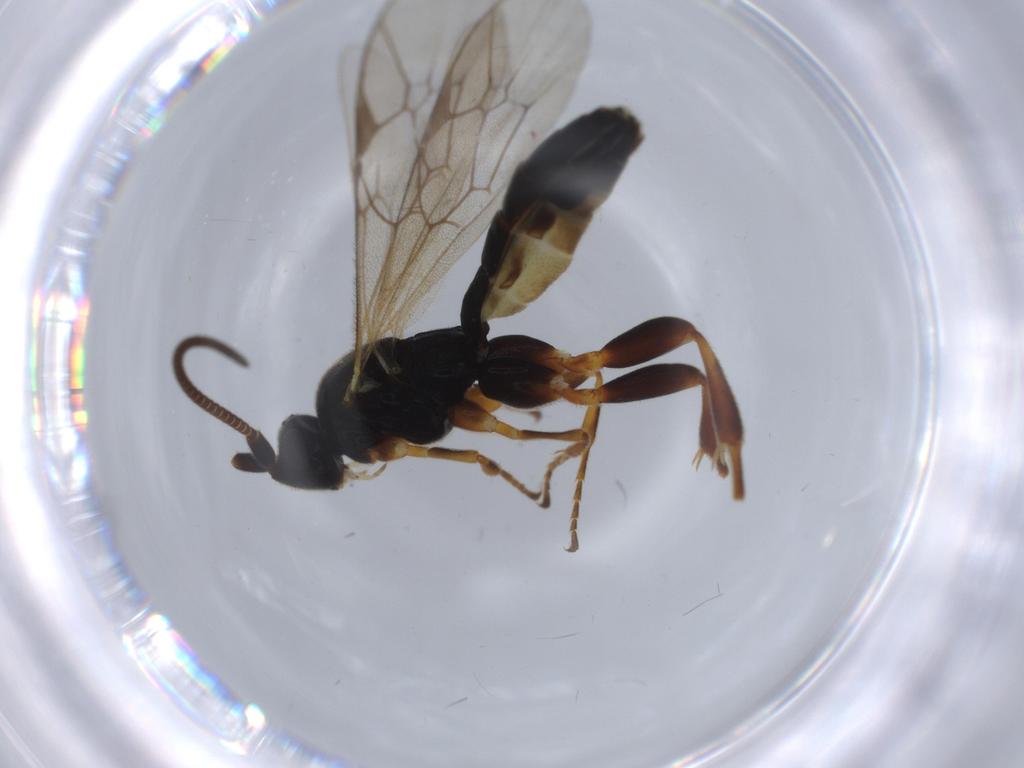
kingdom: Animalia
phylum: Arthropoda
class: Insecta
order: Hymenoptera
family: Ichneumonidae
